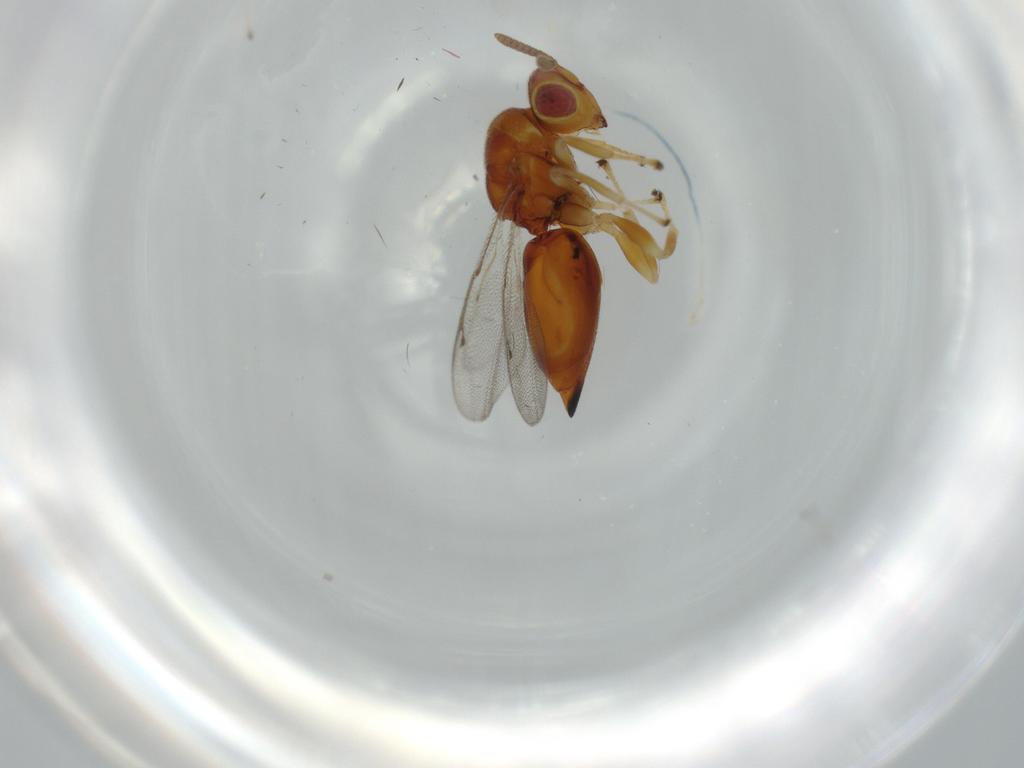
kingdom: Animalia
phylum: Arthropoda
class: Insecta
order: Hymenoptera
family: Eurytomidae
